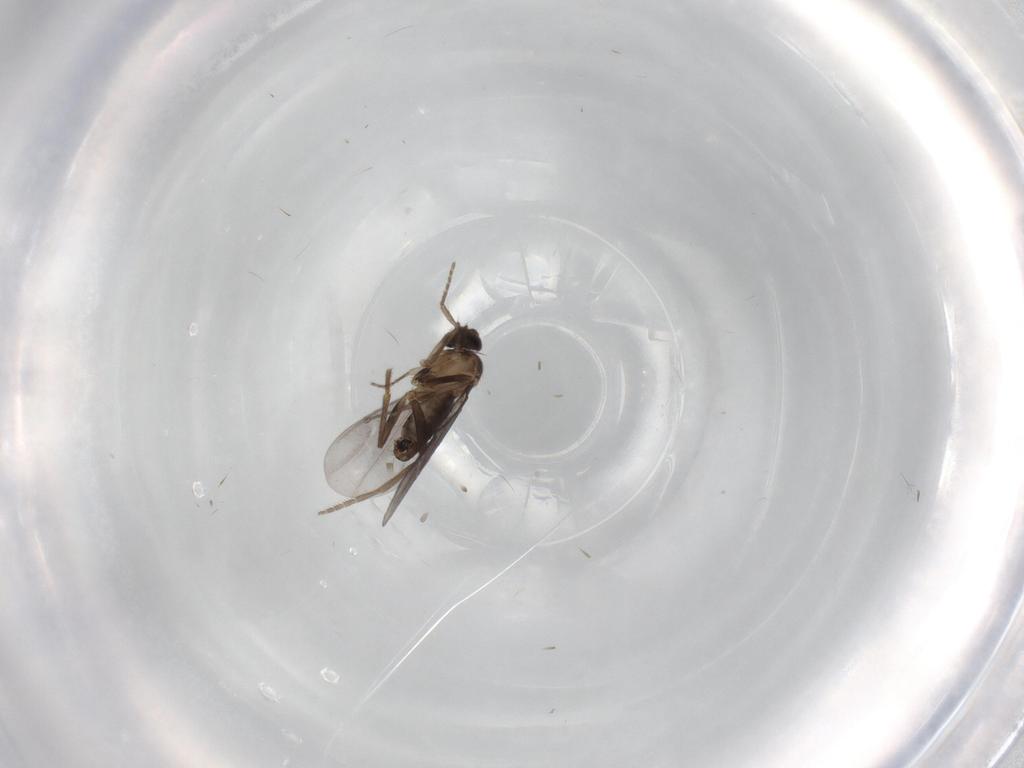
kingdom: Animalia
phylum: Arthropoda
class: Insecta
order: Diptera
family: Phoridae
